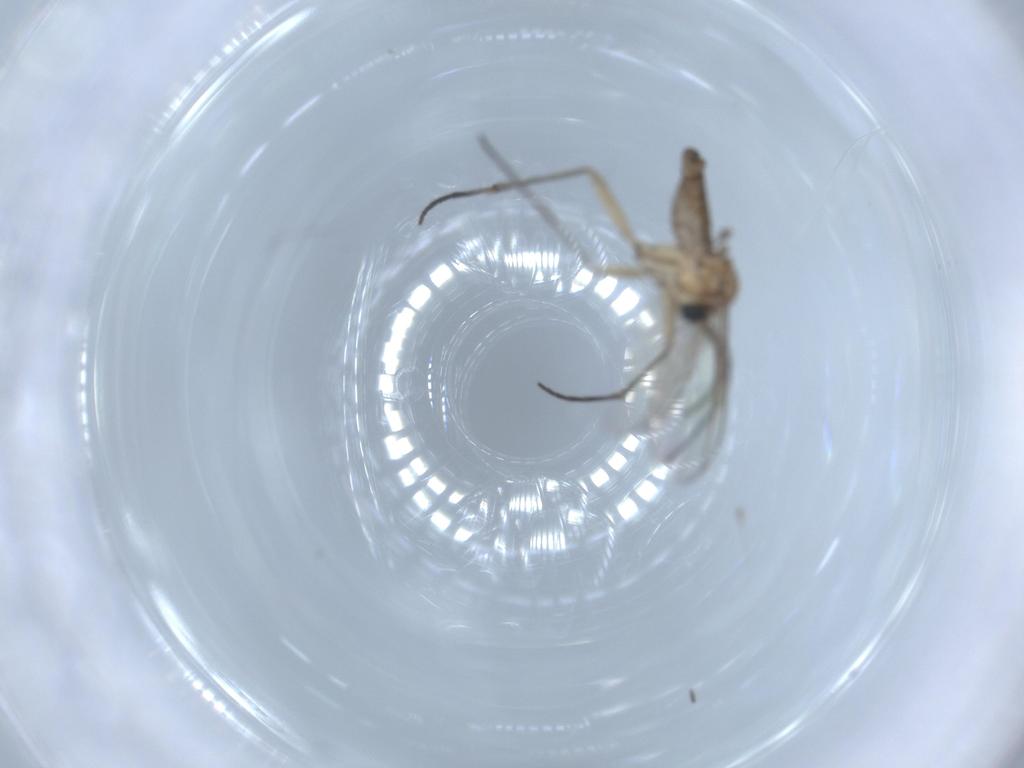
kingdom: Animalia
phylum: Arthropoda
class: Insecta
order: Diptera
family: Sciaridae
